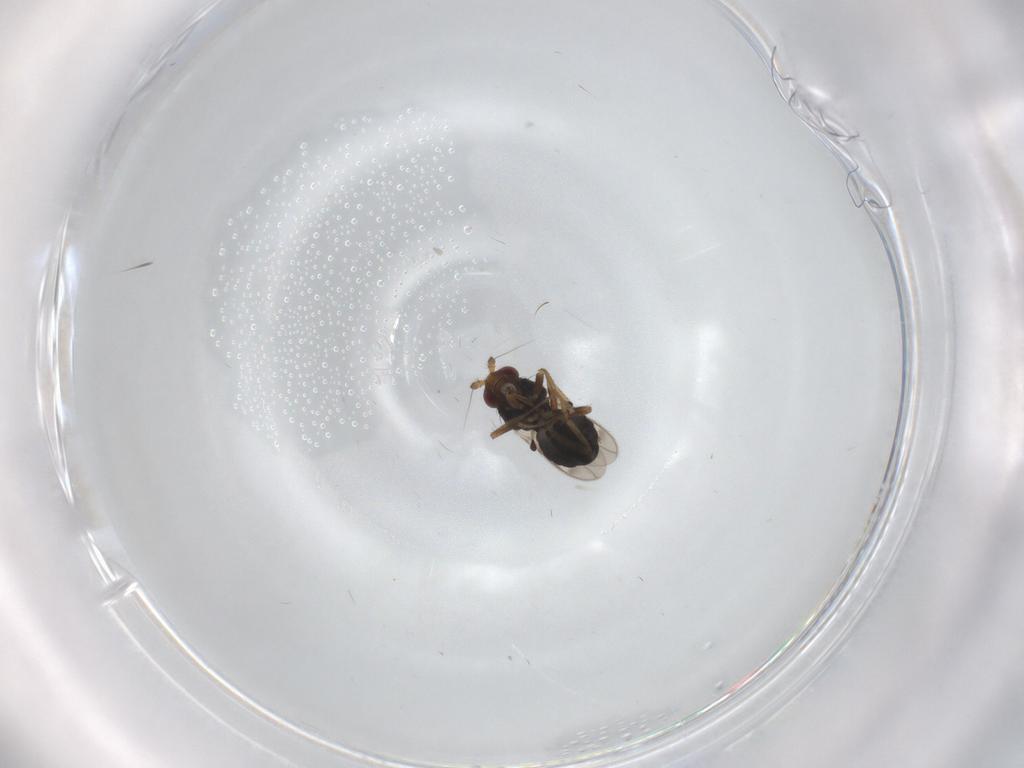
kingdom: Animalia
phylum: Arthropoda
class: Insecta
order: Diptera
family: Sphaeroceridae
